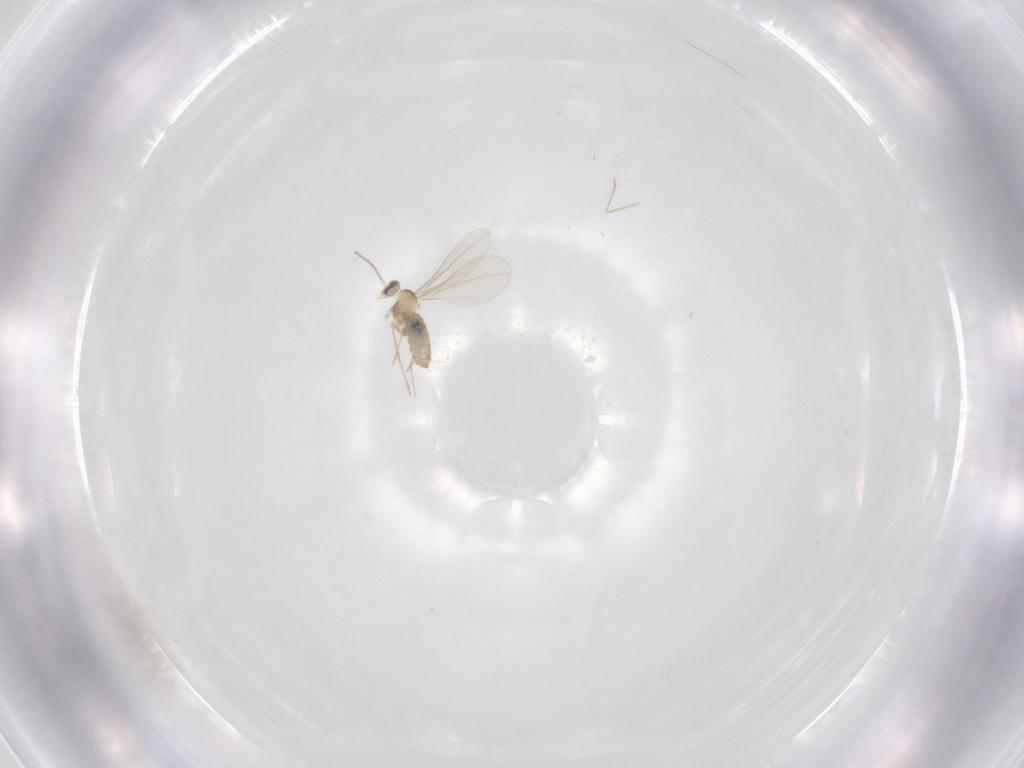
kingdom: Animalia
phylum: Arthropoda
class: Insecta
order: Diptera
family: Cecidomyiidae
